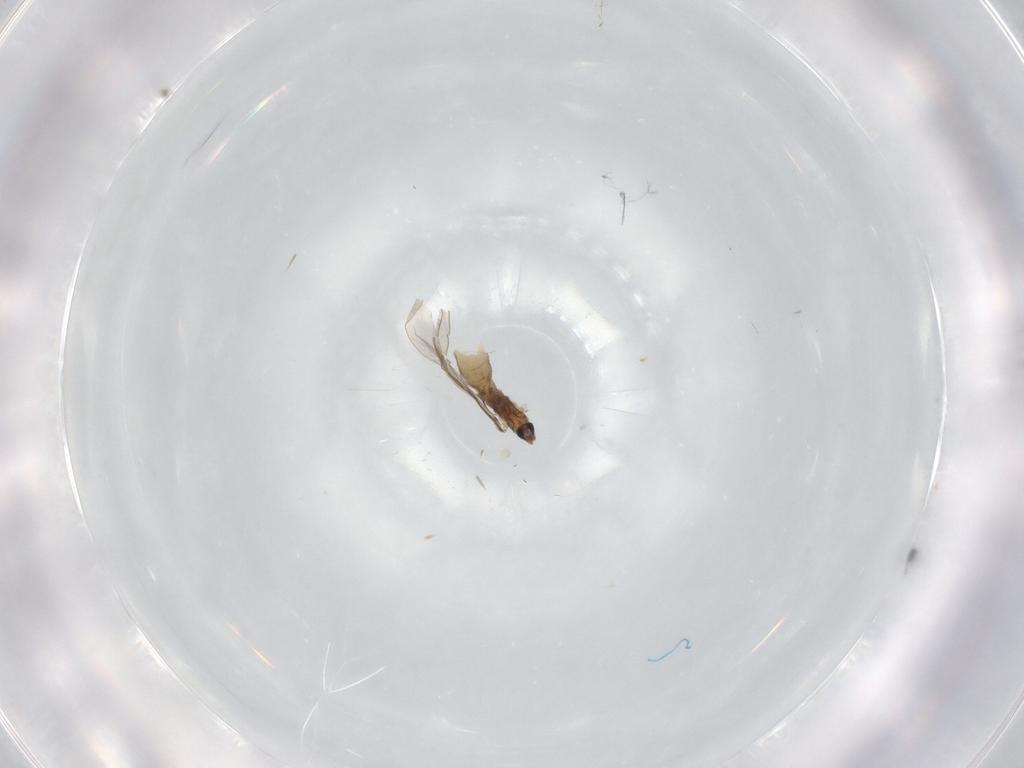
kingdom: Animalia
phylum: Arthropoda
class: Insecta
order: Diptera
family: Cecidomyiidae
